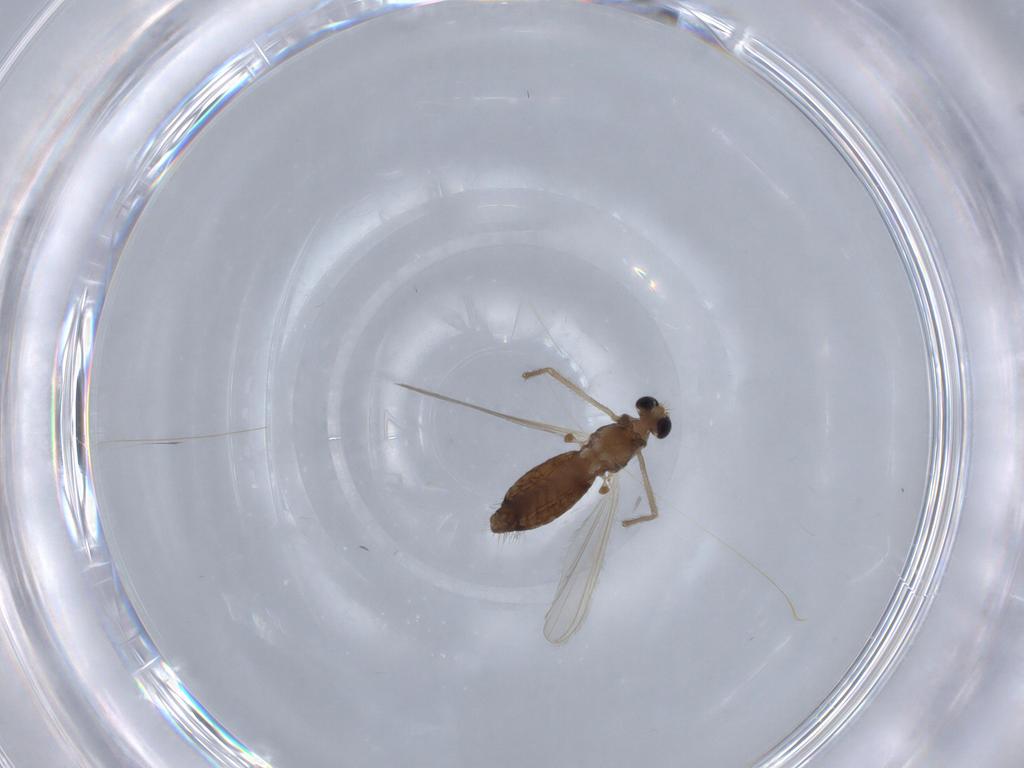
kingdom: Animalia
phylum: Arthropoda
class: Insecta
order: Diptera
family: Chironomidae
